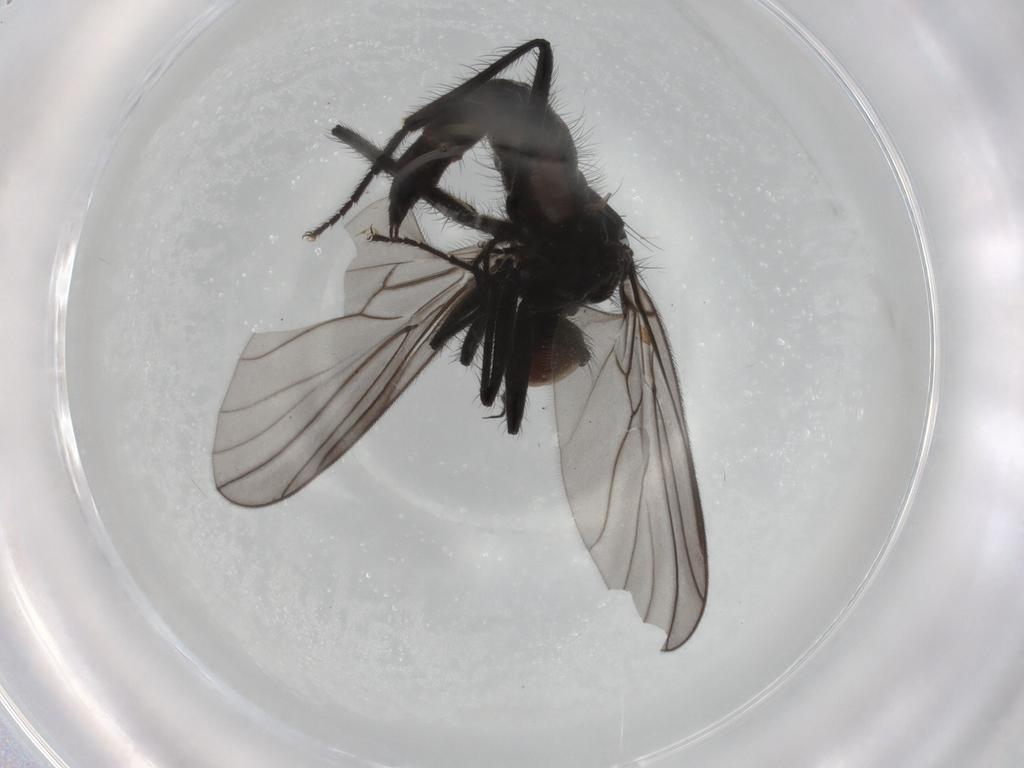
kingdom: Animalia
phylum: Arthropoda
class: Insecta
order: Diptera
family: Chironomidae
